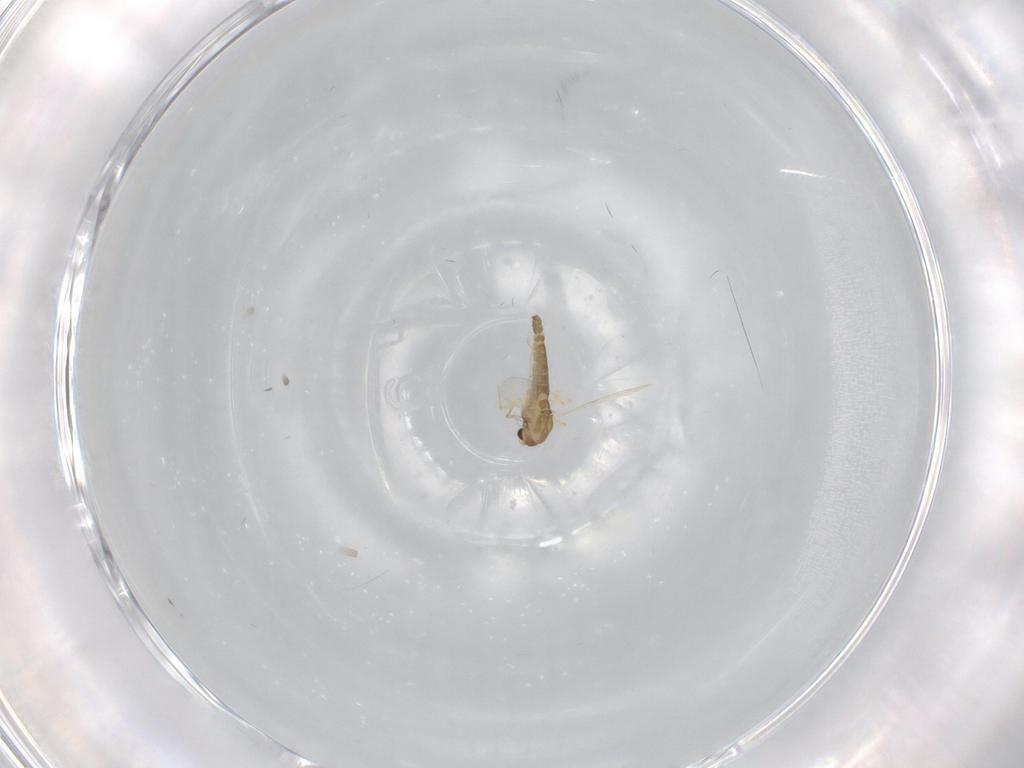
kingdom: Animalia
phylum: Arthropoda
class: Insecta
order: Diptera
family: Chironomidae
